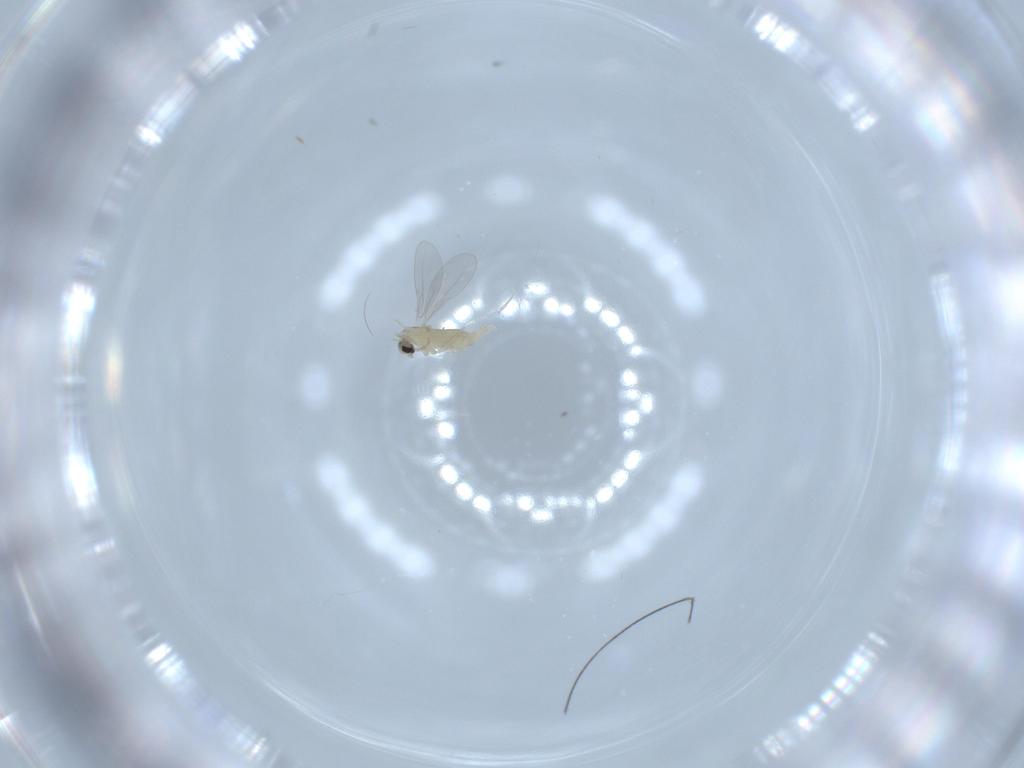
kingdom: Animalia
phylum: Arthropoda
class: Insecta
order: Diptera
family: Cecidomyiidae
